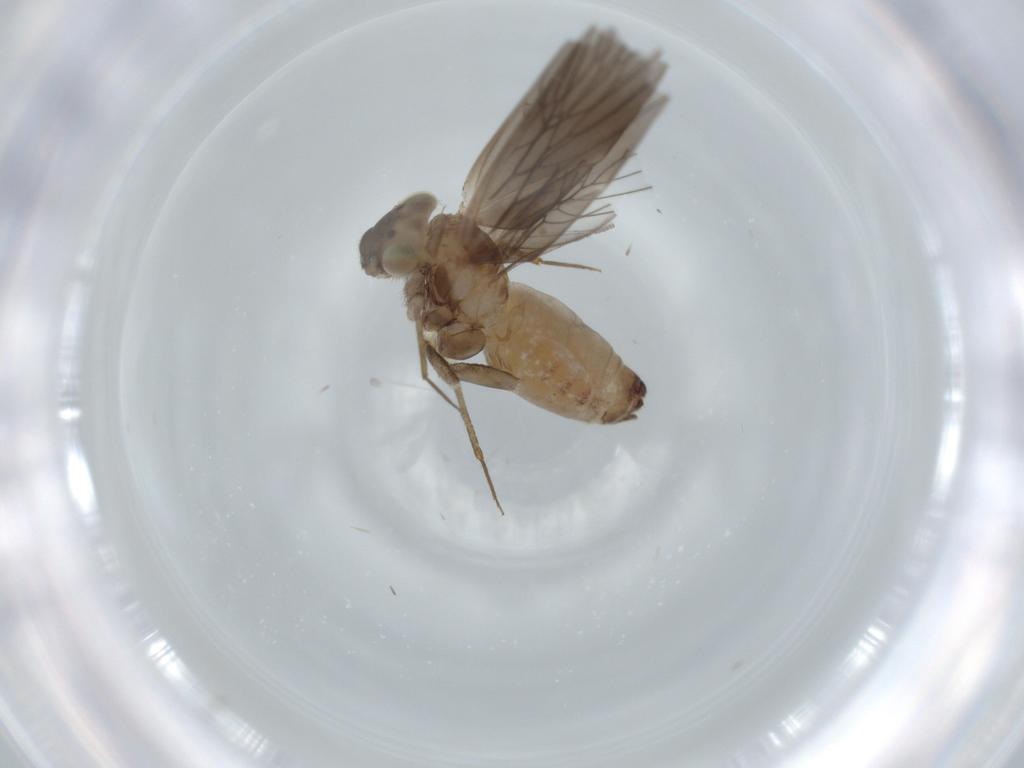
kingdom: Animalia
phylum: Arthropoda
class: Insecta
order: Psocodea
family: Lepidopsocidae
